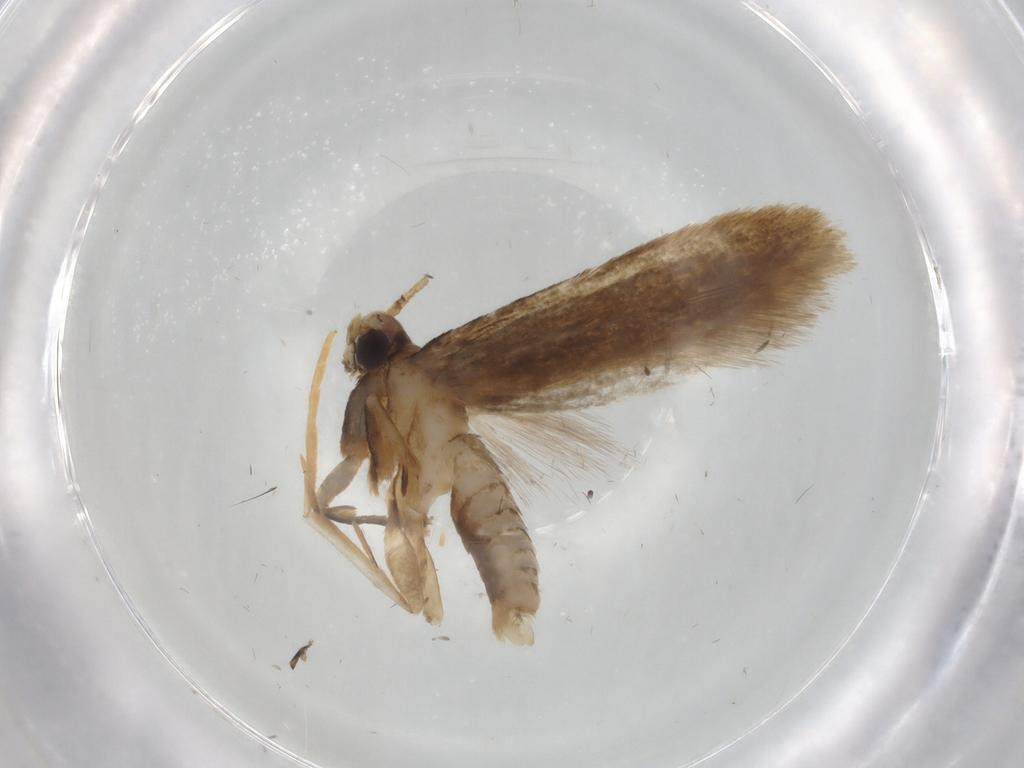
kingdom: Animalia
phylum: Arthropoda
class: Insecta
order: Lepidoptera
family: Coleophoridae
